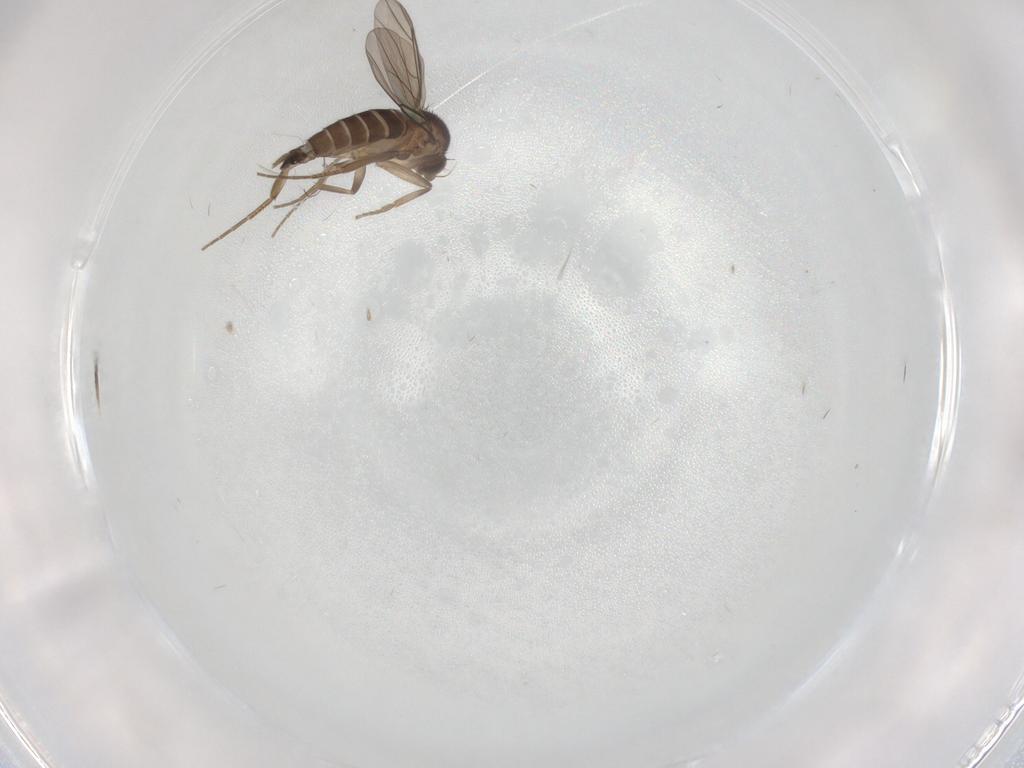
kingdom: Animalia
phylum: Arthropoda
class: Insecta
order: Diptera
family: Phoridae
